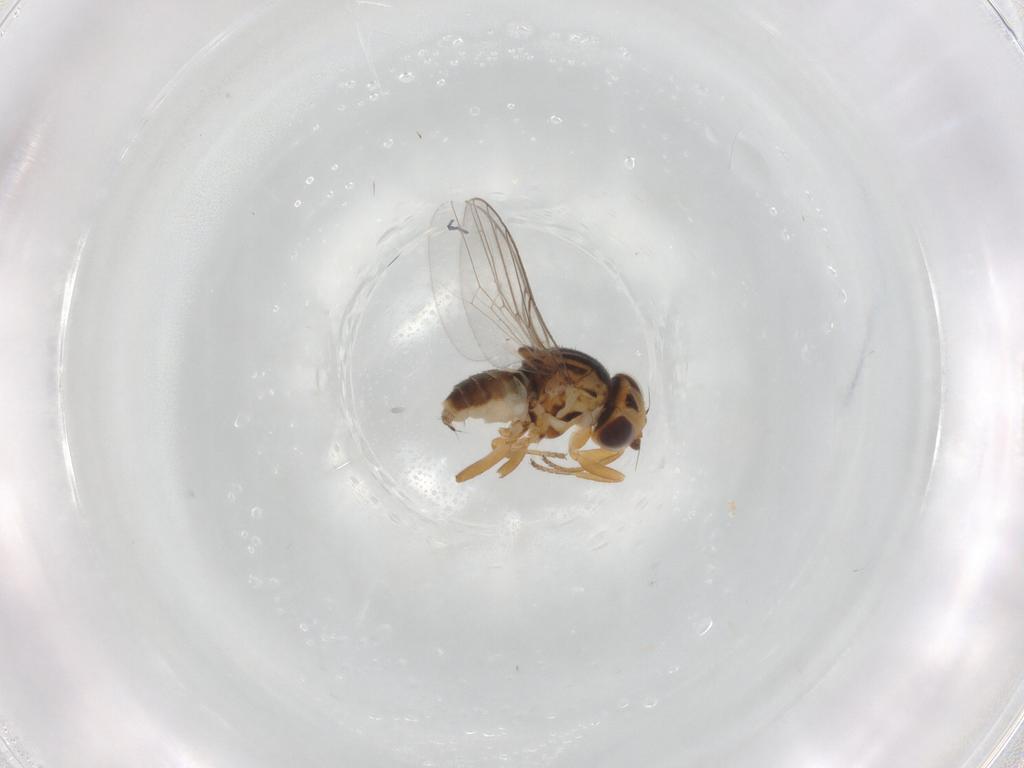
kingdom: Animalia
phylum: Arthropoda
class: Insecta
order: Diptera
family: Chloropidae
